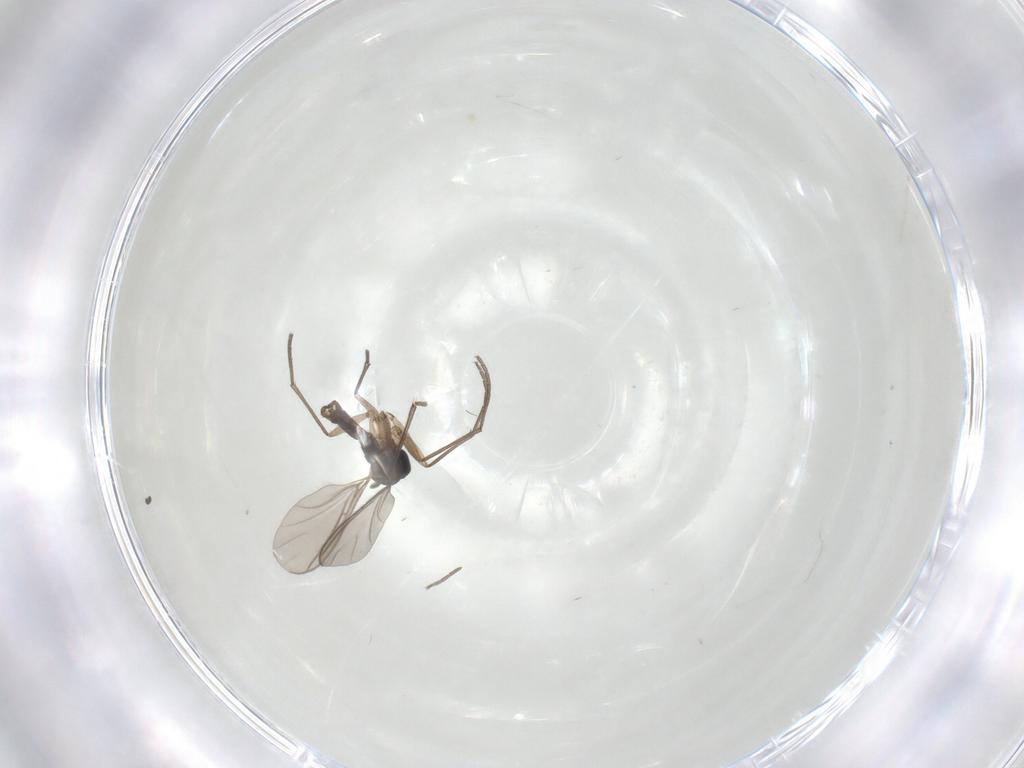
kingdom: Animalia
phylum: Arthropoda
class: Insecta
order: Diptera
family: Sciaridae
